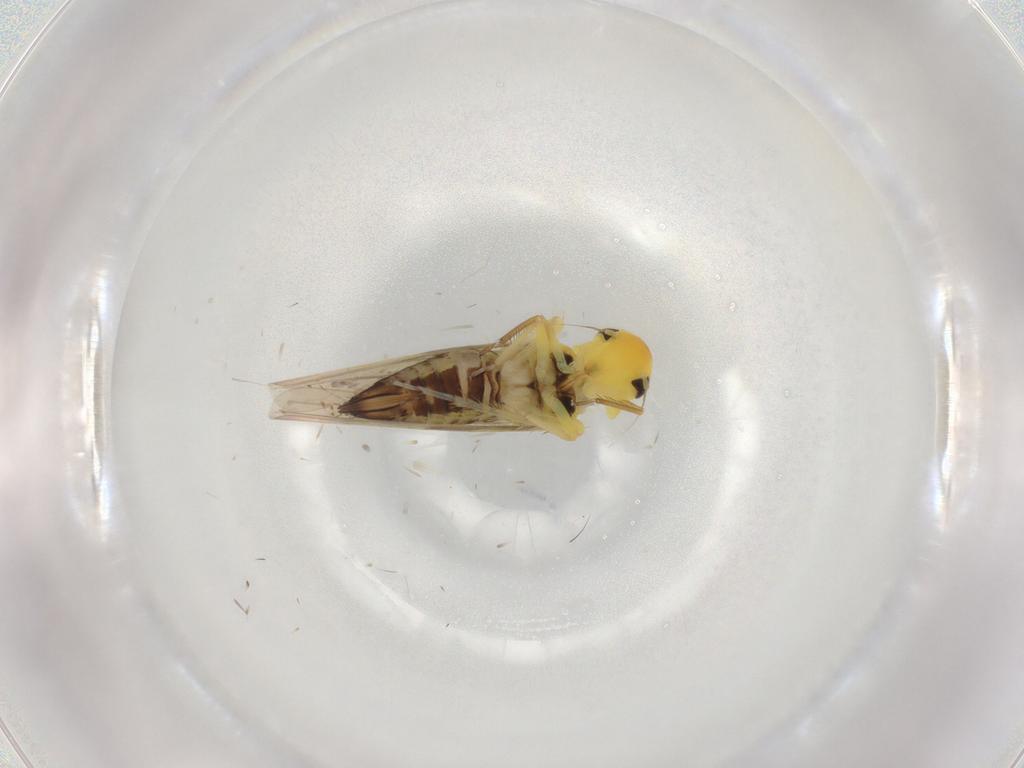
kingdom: Animalia
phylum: Arthropoda
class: Insecta
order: Hemiptera
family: Cicadellidae
